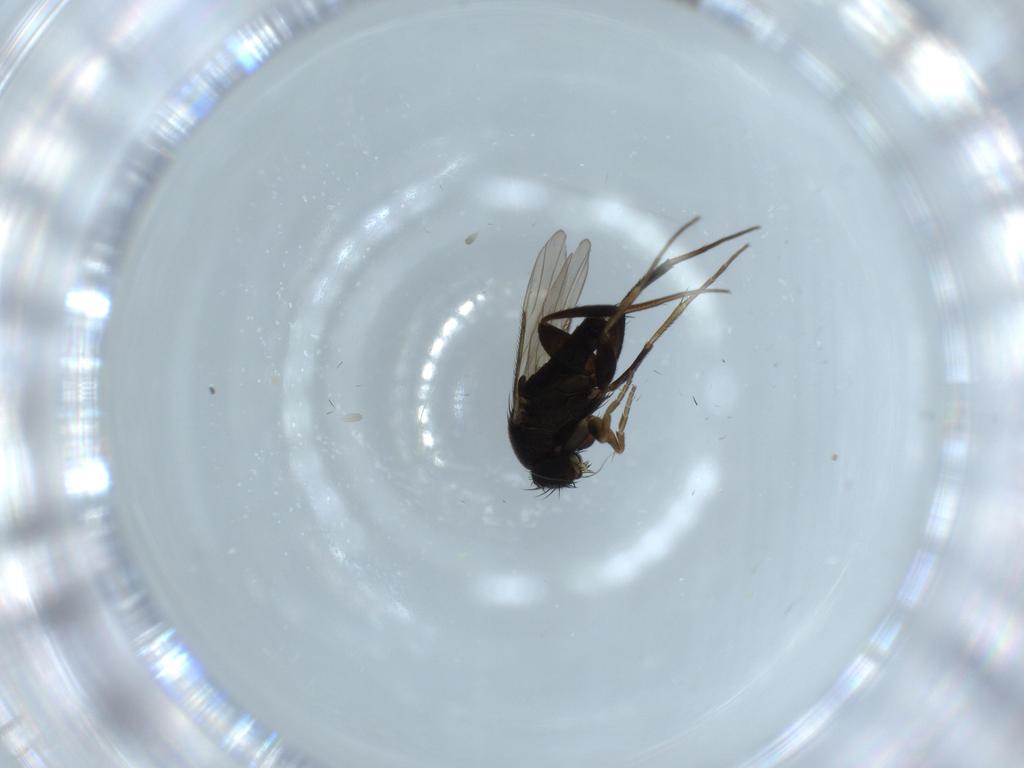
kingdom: Animalia
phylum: Arthropoda
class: Insecta
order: Diptera
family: Phoridae
